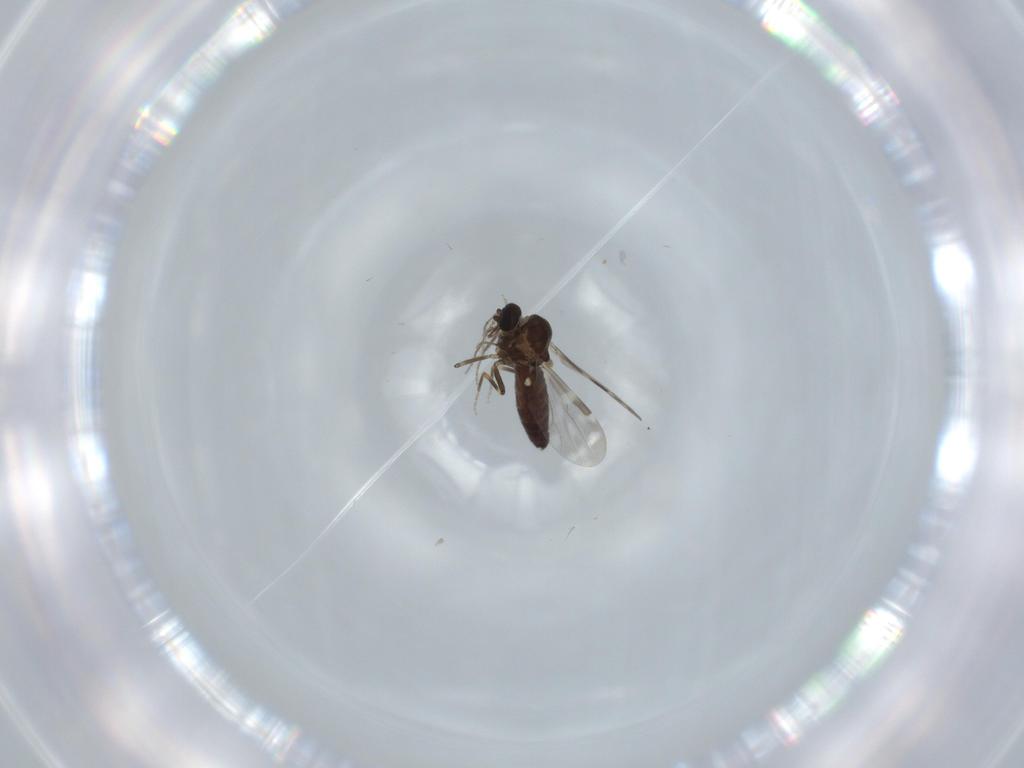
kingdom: Animalia
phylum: Arthropoda
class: Insecta
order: Diptera
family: Ceratopogonidae
